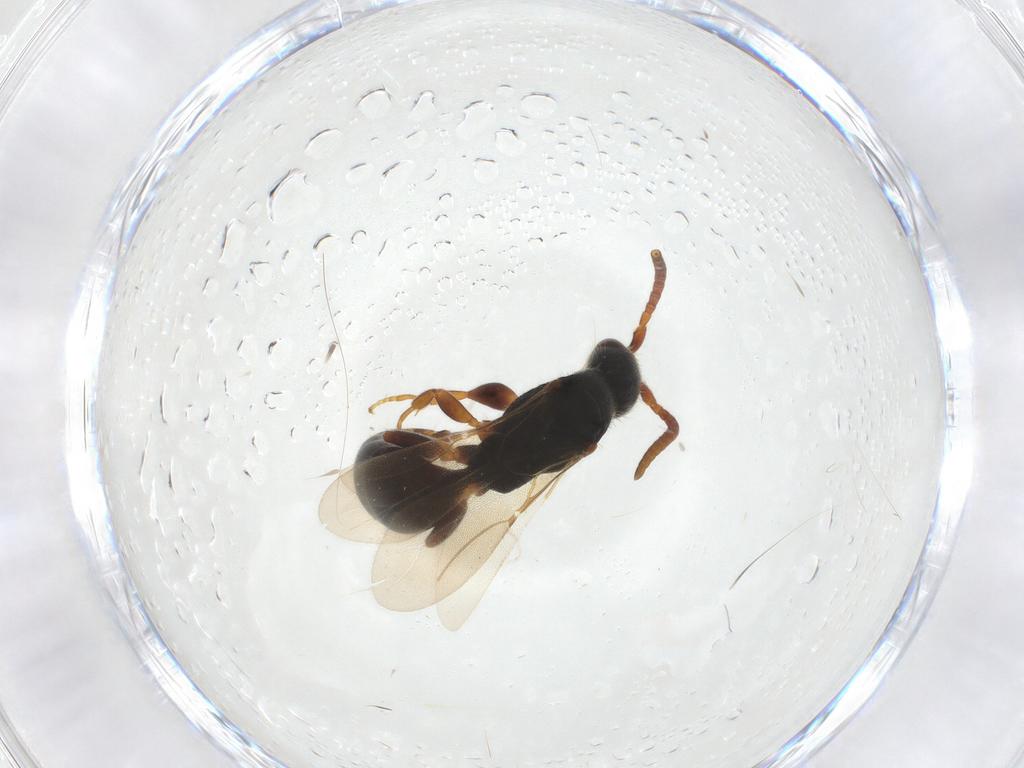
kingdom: Animalia
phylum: Arthropoda
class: Insecta
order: Hymenoptera
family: Bethylidae
